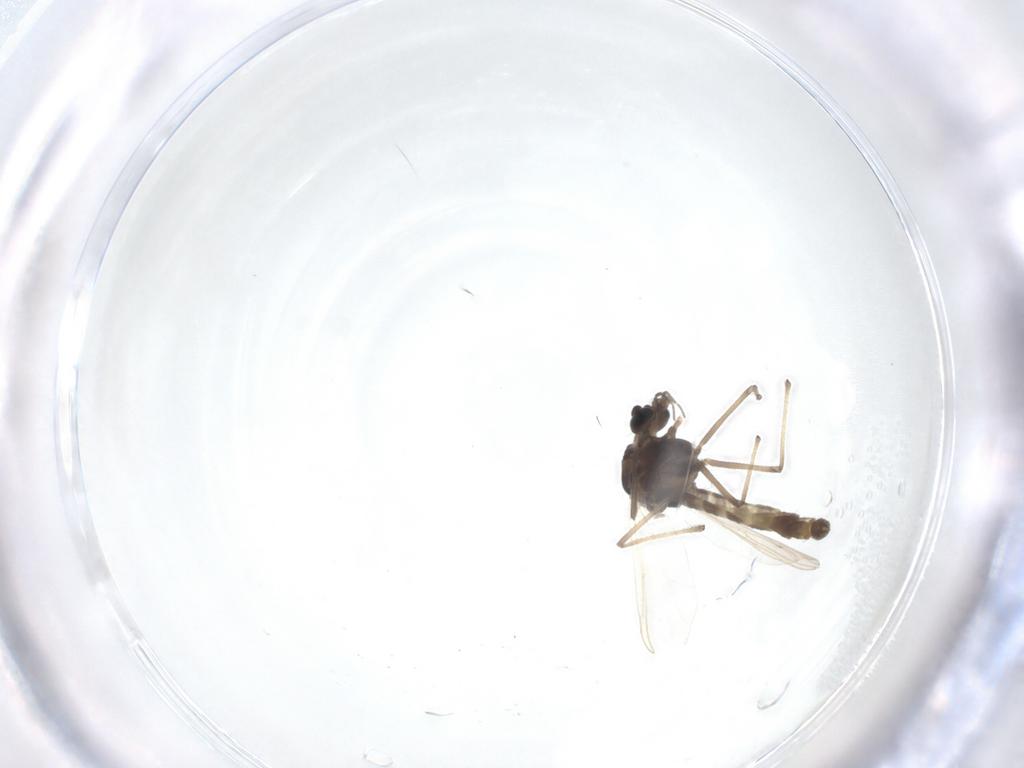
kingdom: Animalia
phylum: Arthropoda
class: Insecta
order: Diptera
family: Chironomidae
